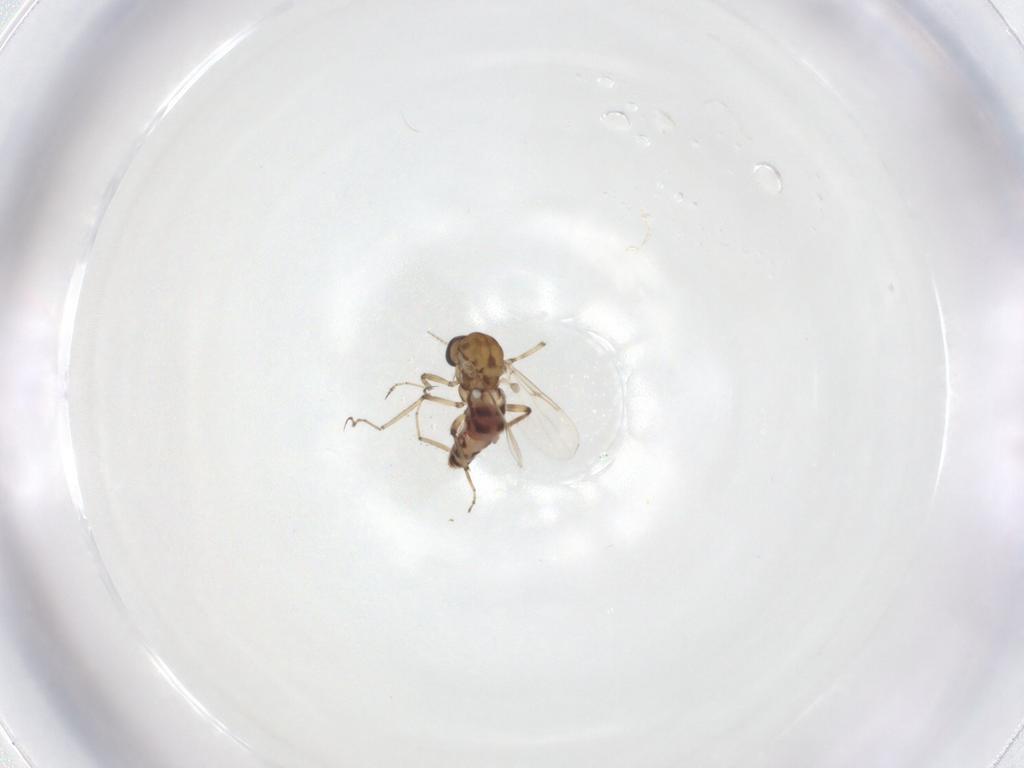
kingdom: Animalia
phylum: Arthropoda
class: Insecta
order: Diptera
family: Ceratopogonidae
